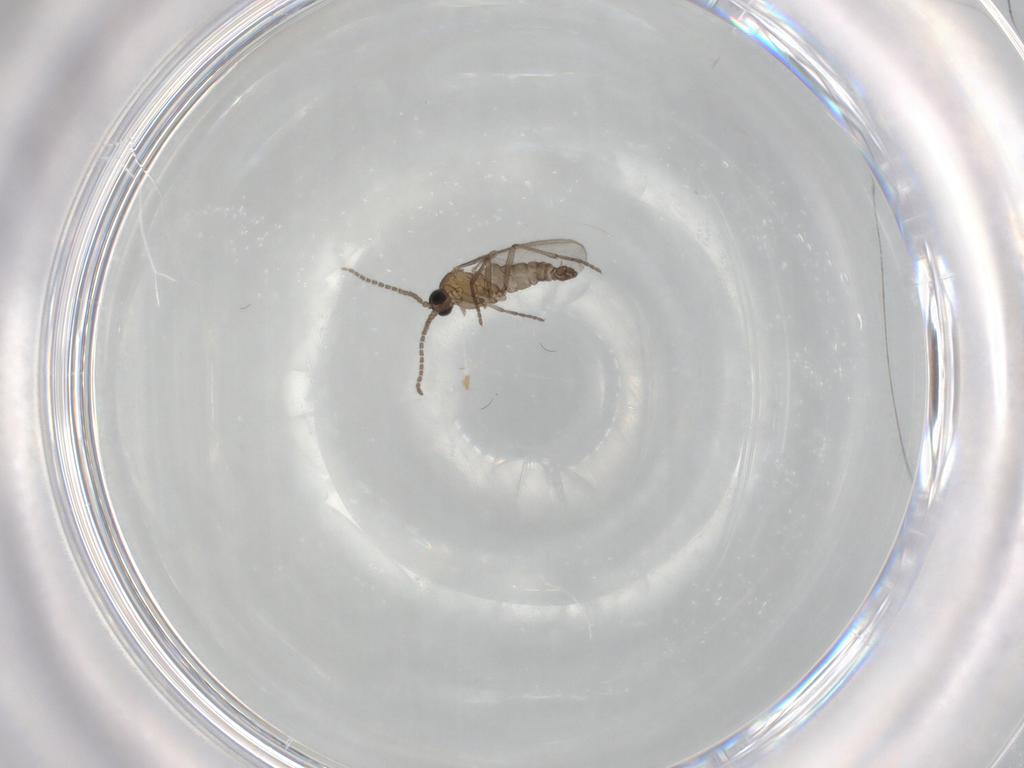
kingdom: Animalia
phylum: Arthropoda
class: Insecta
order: Diptera
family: Sciaridae
